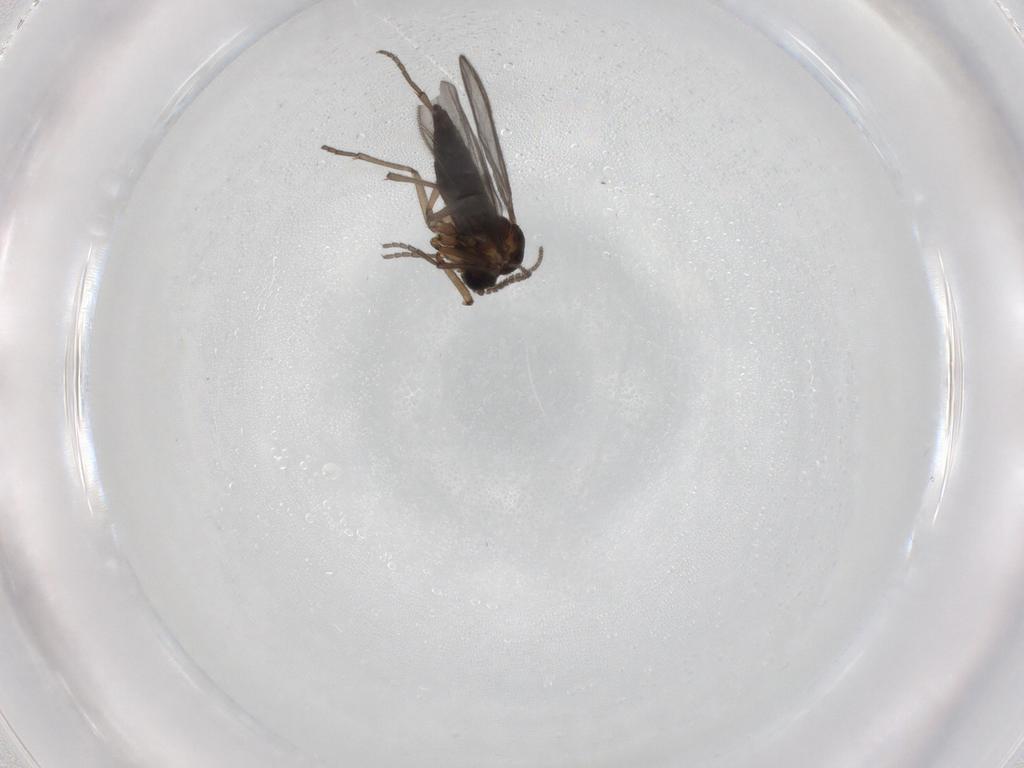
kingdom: Animalia
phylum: Arthropoda
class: Insecta
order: Diptera
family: Sciaridae
